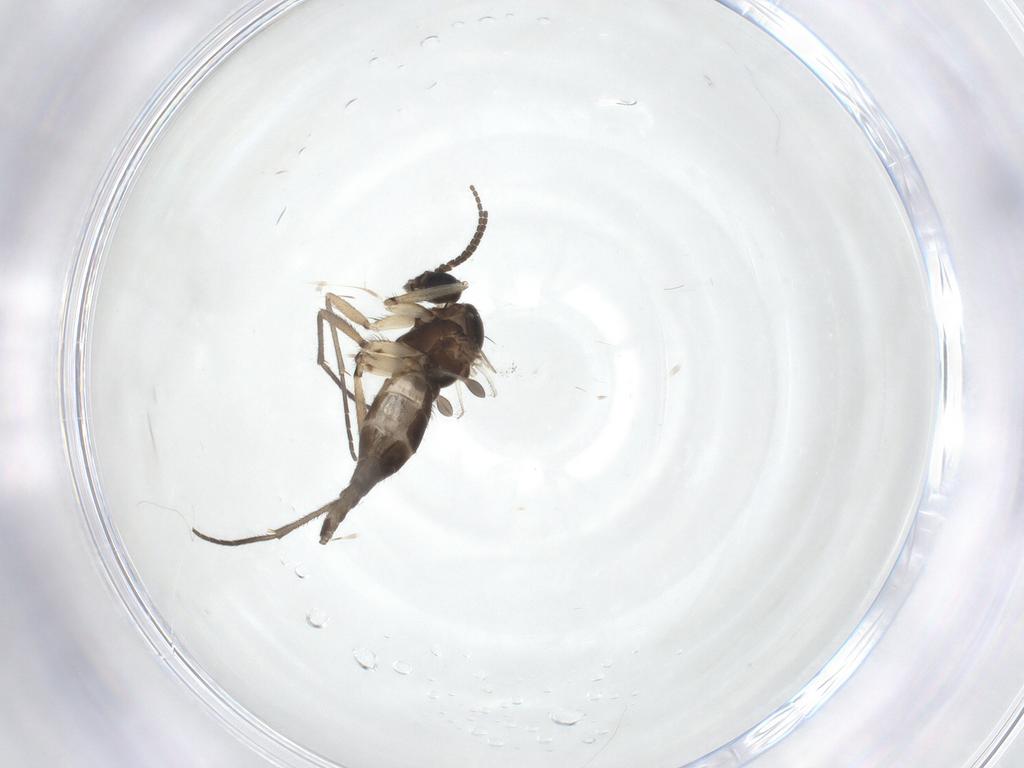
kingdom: Animalia
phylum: Arthropoda
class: Insecta
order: Diptera
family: Sciaridae
